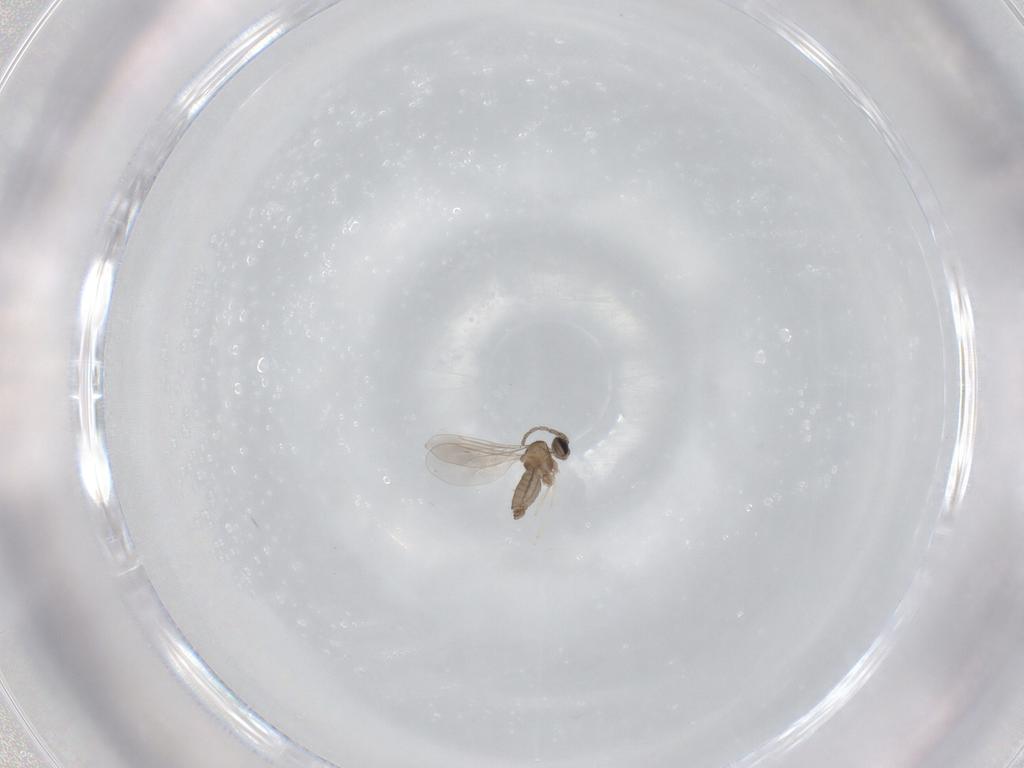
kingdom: Animalia
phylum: Arthropoda
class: Insecta
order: Diptera
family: Cecidomyiidae
